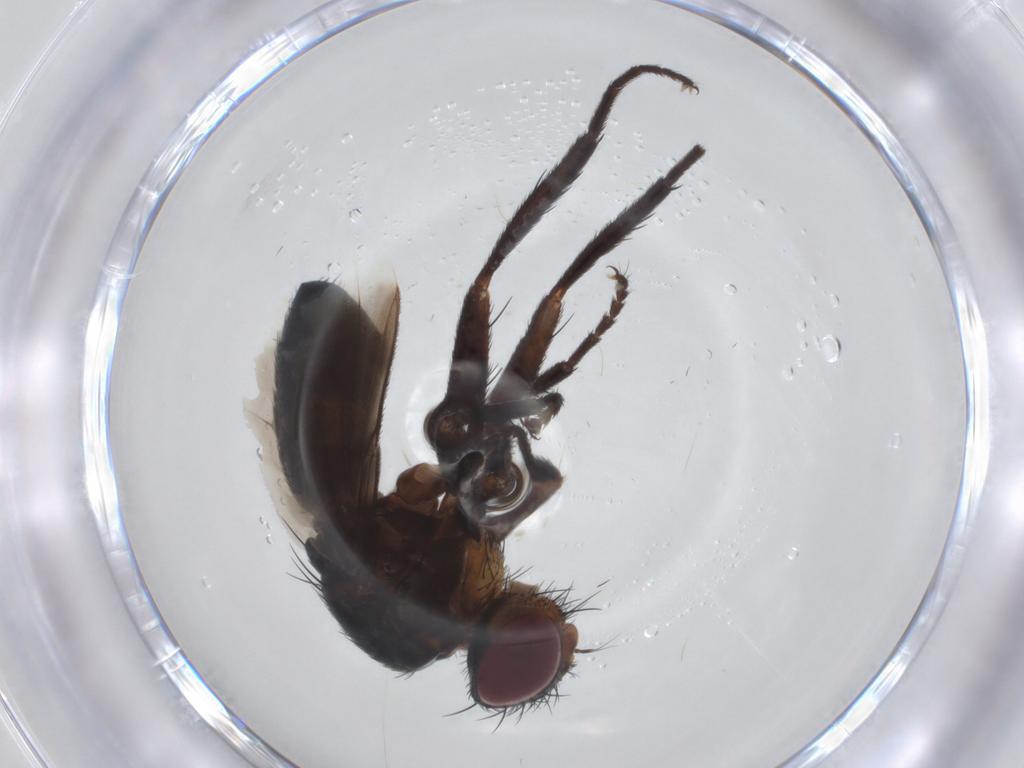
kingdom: Animalia
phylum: Arthropoda
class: Insecta
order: Diptera
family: Tachinidae
